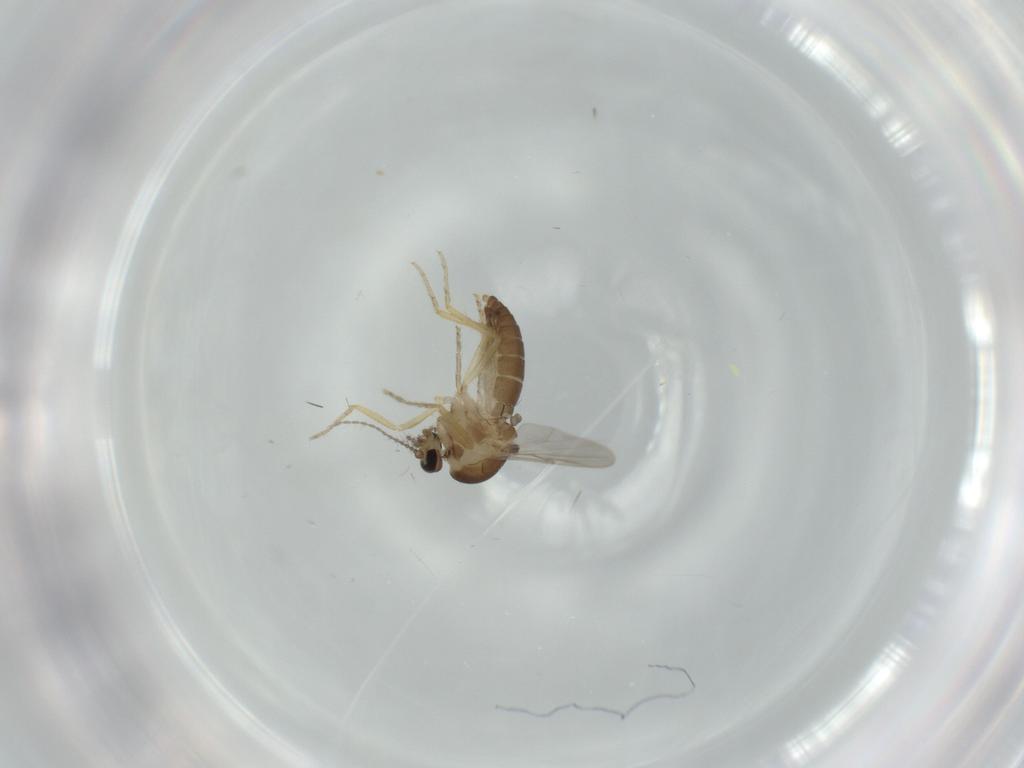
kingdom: Animalia
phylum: Arthropoda
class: Insecta
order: Diptera
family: Ceratopogonidae
